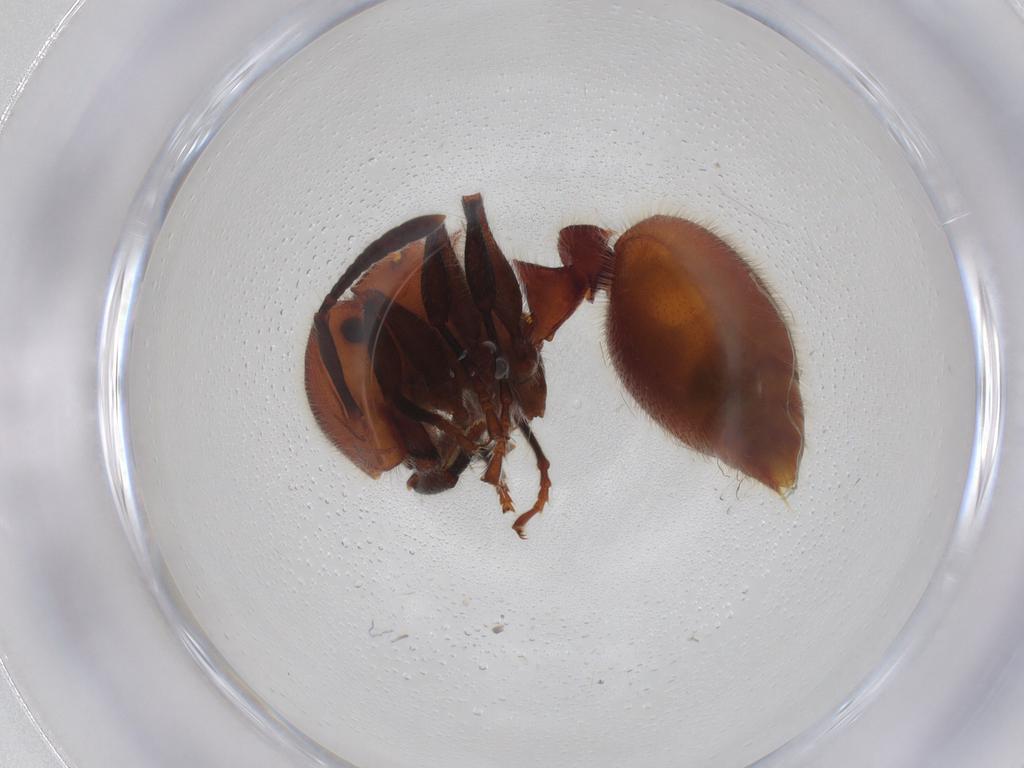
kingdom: Animalia
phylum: Arthropoda
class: Insecta
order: Hymenoptera
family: Formicidae
